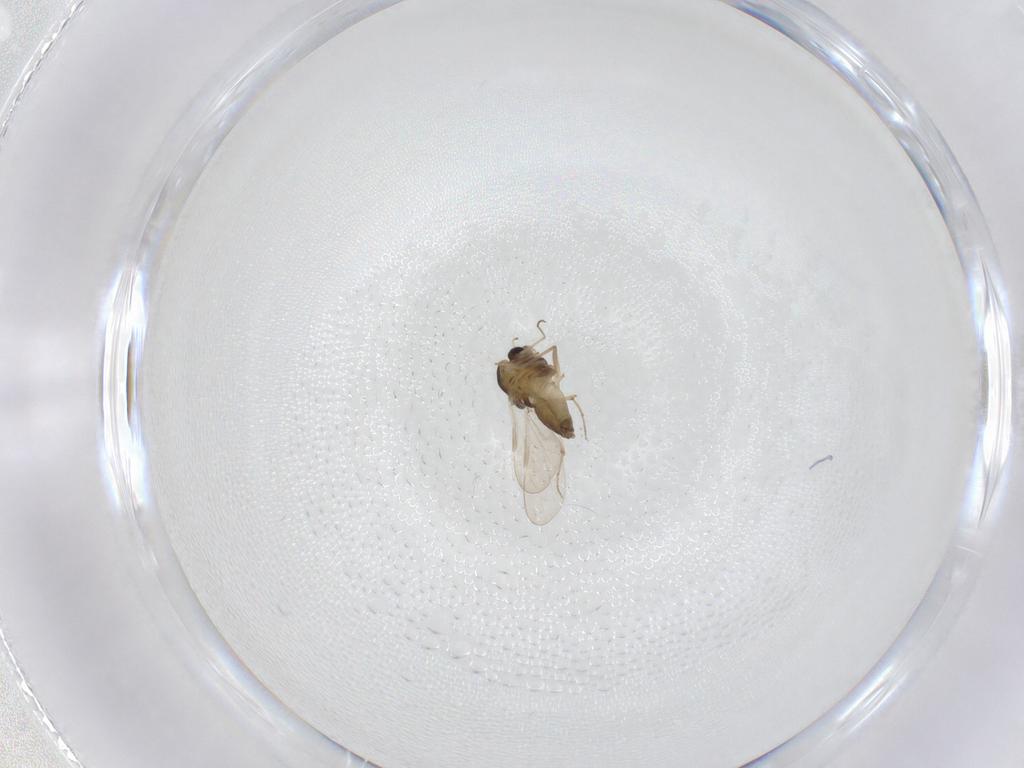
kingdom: Animalia
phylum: Arthropoda
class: Insecta
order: Diptera
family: Chironomidae
